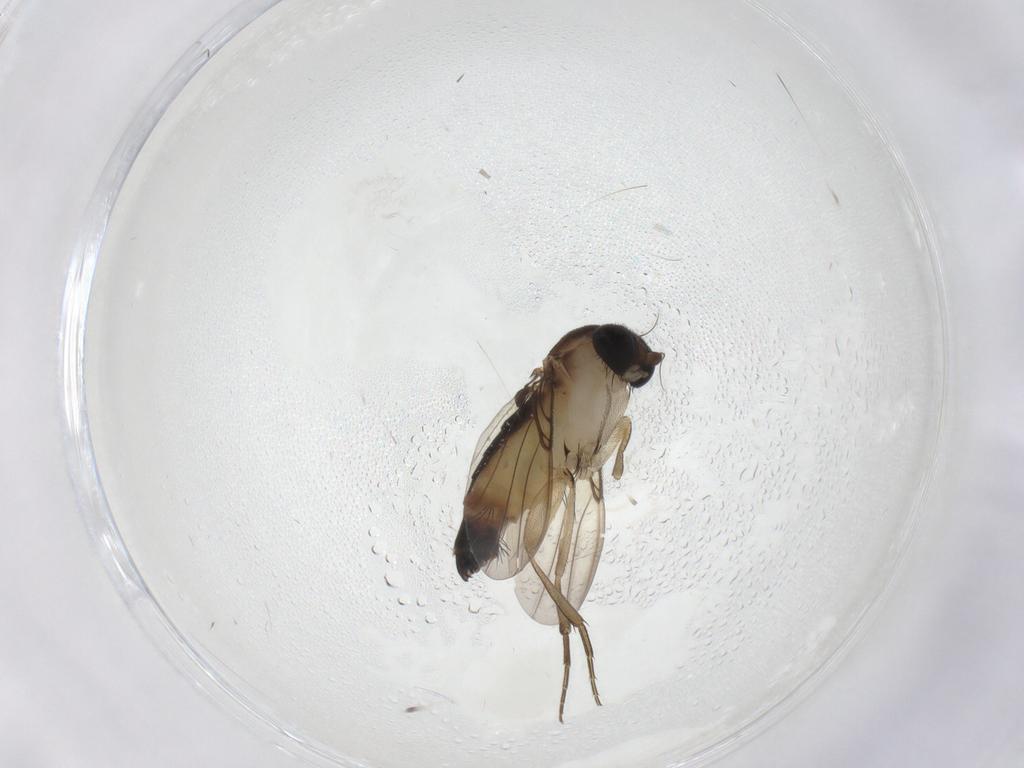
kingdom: Animalia
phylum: Arthropoda
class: Insecta
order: Diptera
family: Phoridae
